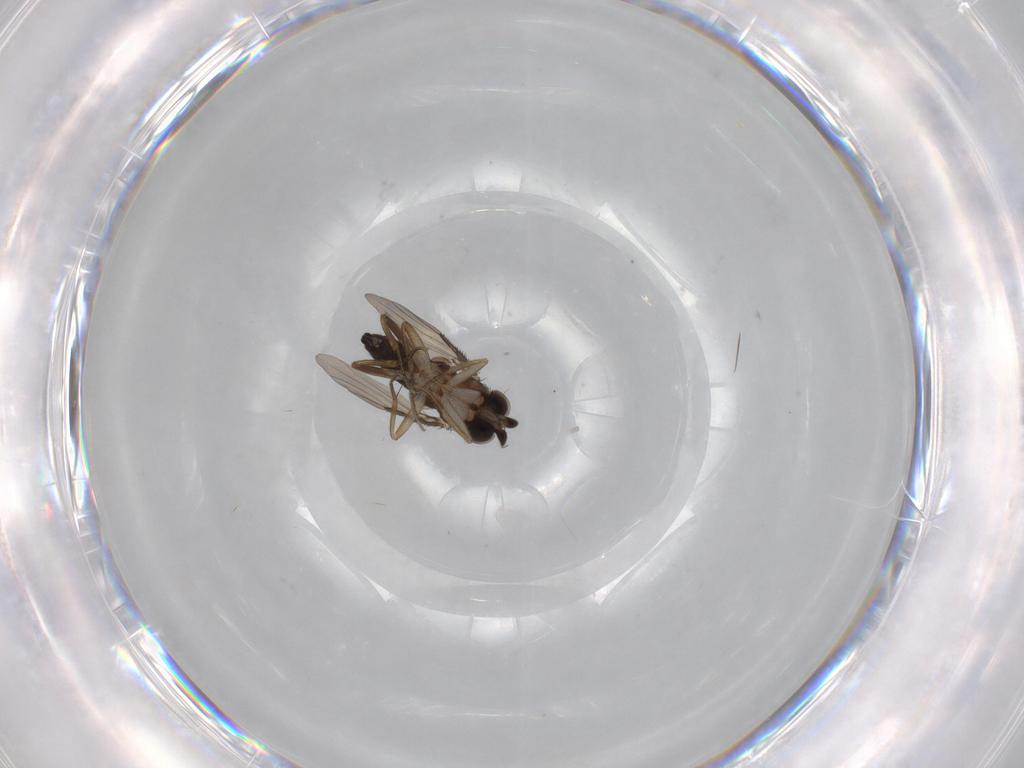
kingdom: Animalia
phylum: Arthropoda
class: Insecta
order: Diptera
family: Phoridae
